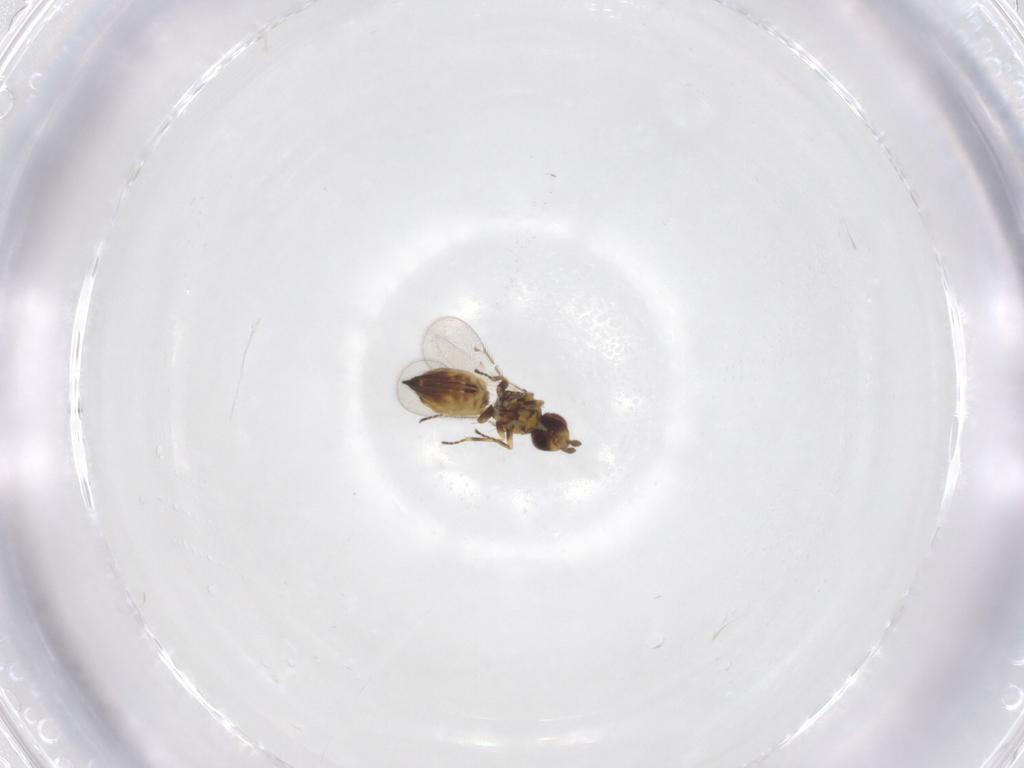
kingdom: Animalia
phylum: Arthropoda
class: Insecta
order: Hymenoptera
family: Eulophidae
